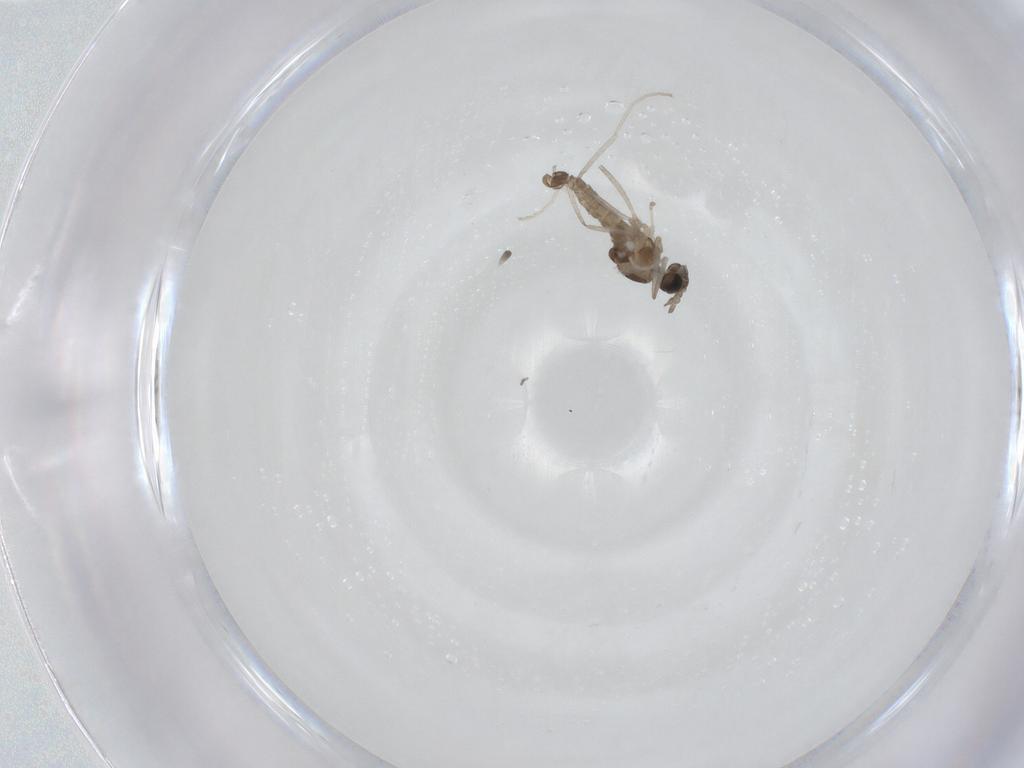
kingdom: Animalia
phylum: Arthropoda
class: Insecta
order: Diptera
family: Cecidomyiidae
